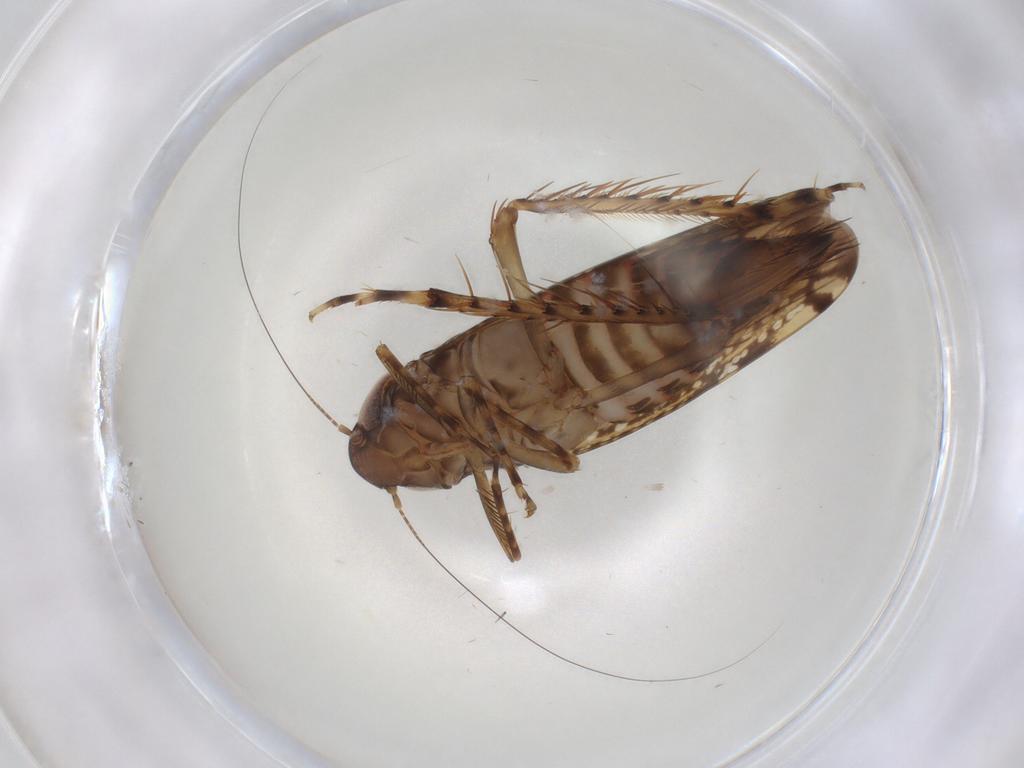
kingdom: Animalia
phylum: Arthropoda
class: Insecta
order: Hemiptera
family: Cicadellidae
